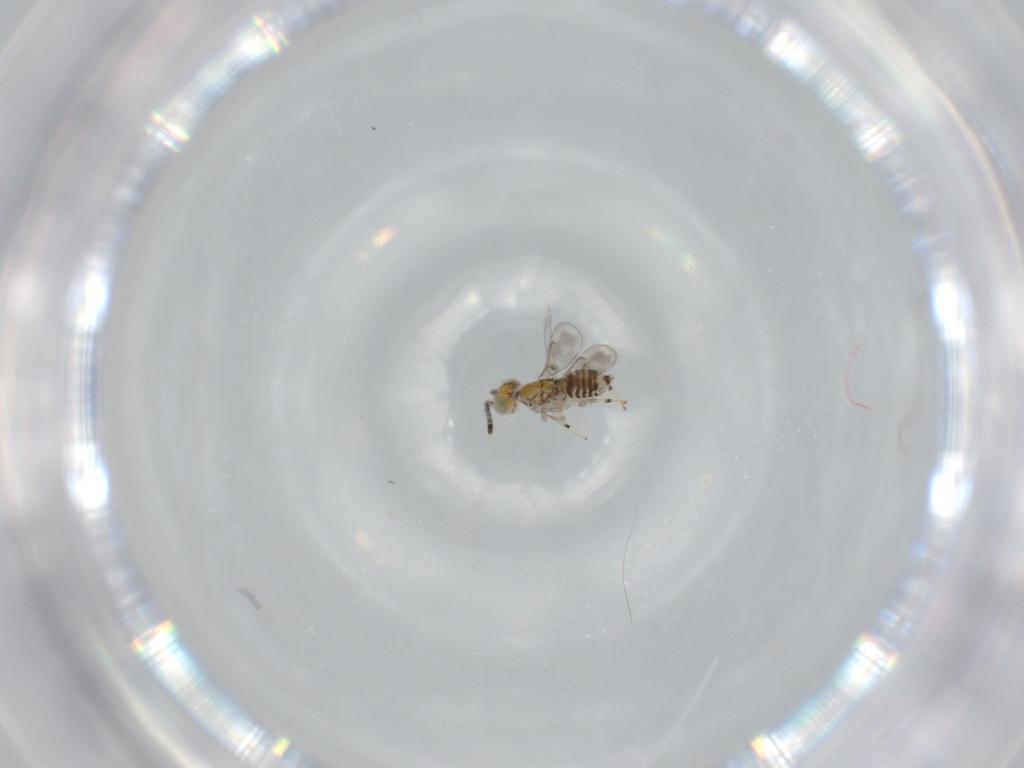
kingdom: Animalia
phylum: Arthropoda
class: Insecta
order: Hymenoptera
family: Aphelinidae
